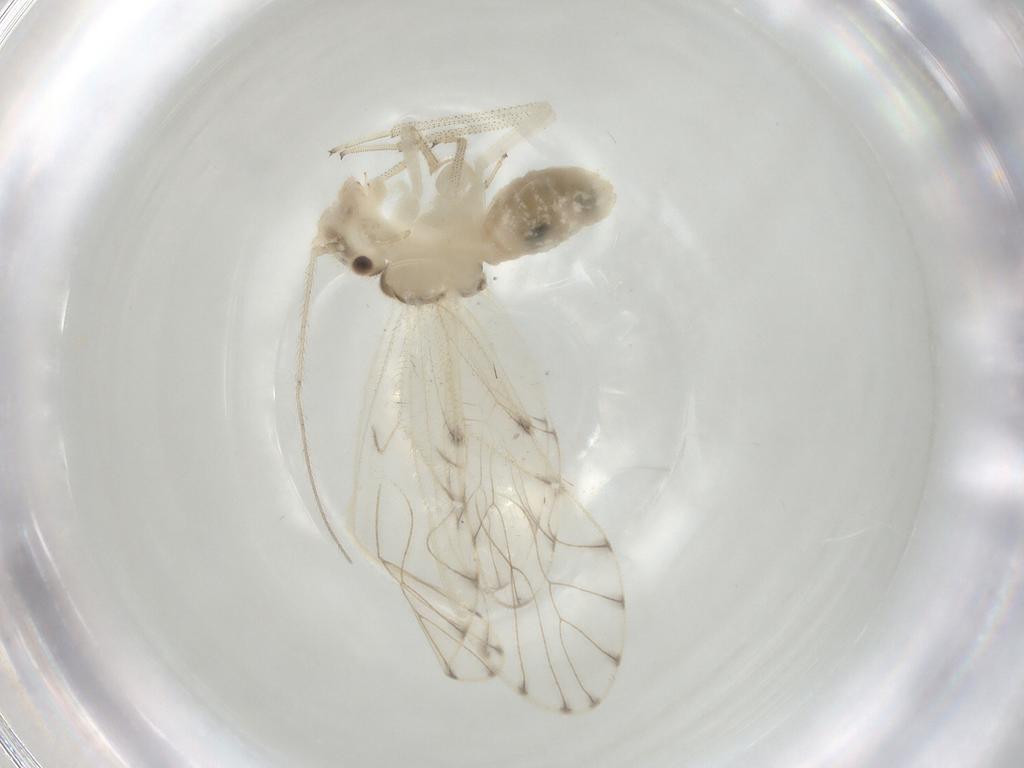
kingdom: Animalia
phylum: Arthropoda
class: Insecta
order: Psocodea
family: Philotarsidae
